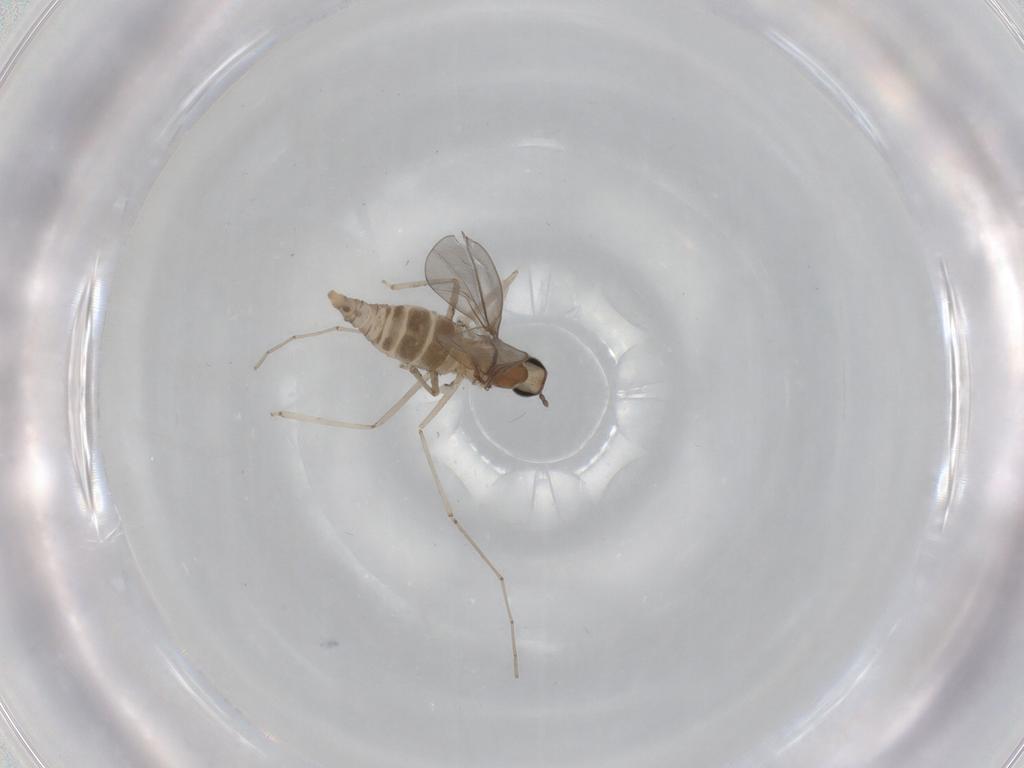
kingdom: Animalia
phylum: Arthropoda
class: Insecta
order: Diptera
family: Cecidomyiidae
